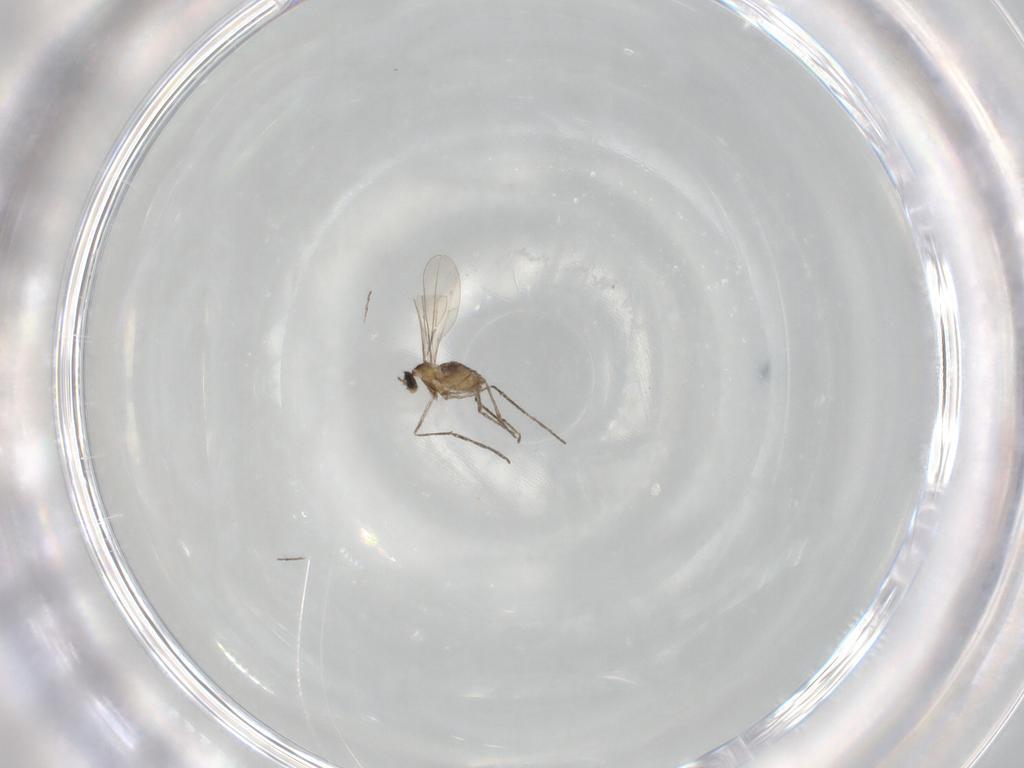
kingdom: Animalia
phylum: Arthropoda
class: Insecta
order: Diptera
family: Cecidomyiidae
